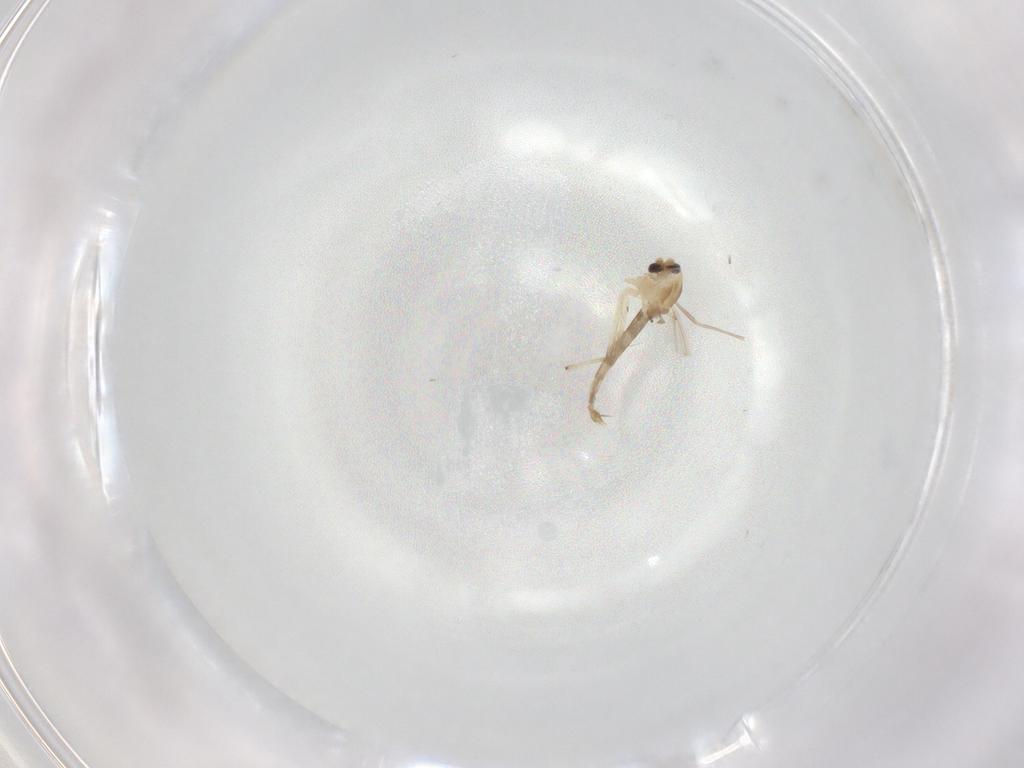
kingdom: Animalia
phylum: Arthropoda
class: Insecta
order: Diptera
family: Chironomidae
